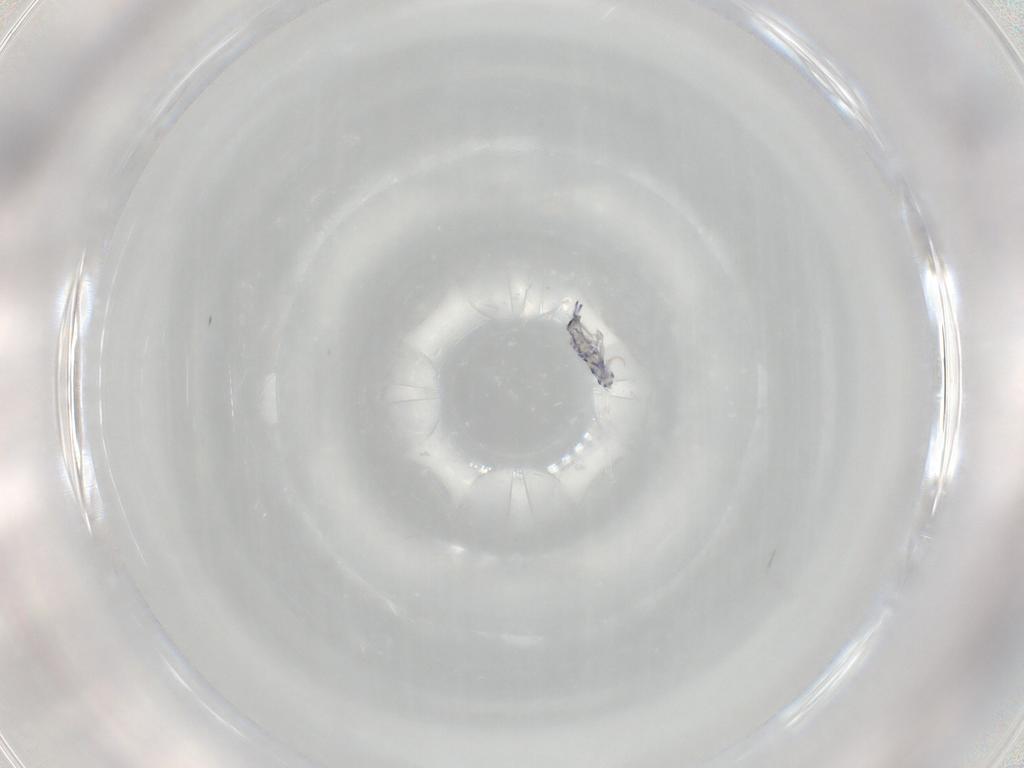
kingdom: Animalia
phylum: Arthropoda
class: Collembola
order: Entomobryomorpha
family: Entomobryidae
